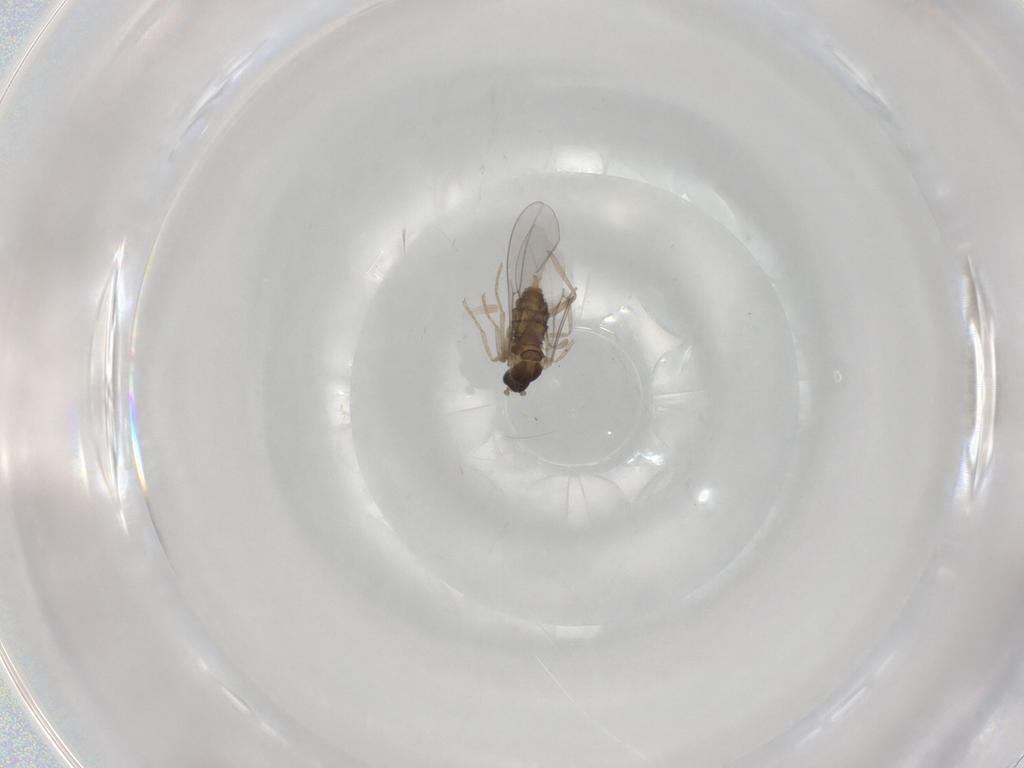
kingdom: Animalia
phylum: Arthropoda
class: Insecta
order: Diptera
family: Cecidomyiidae
